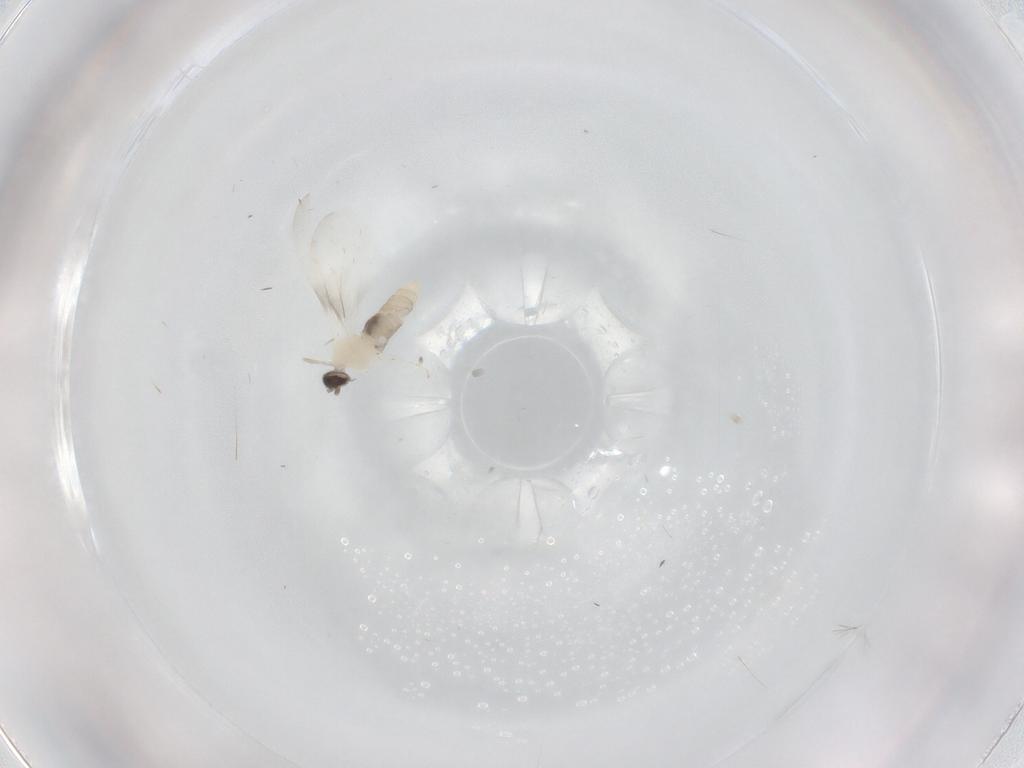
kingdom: Animalia
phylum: Arthropoda
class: Insecta
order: Diptera
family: Cecidomyiidae
